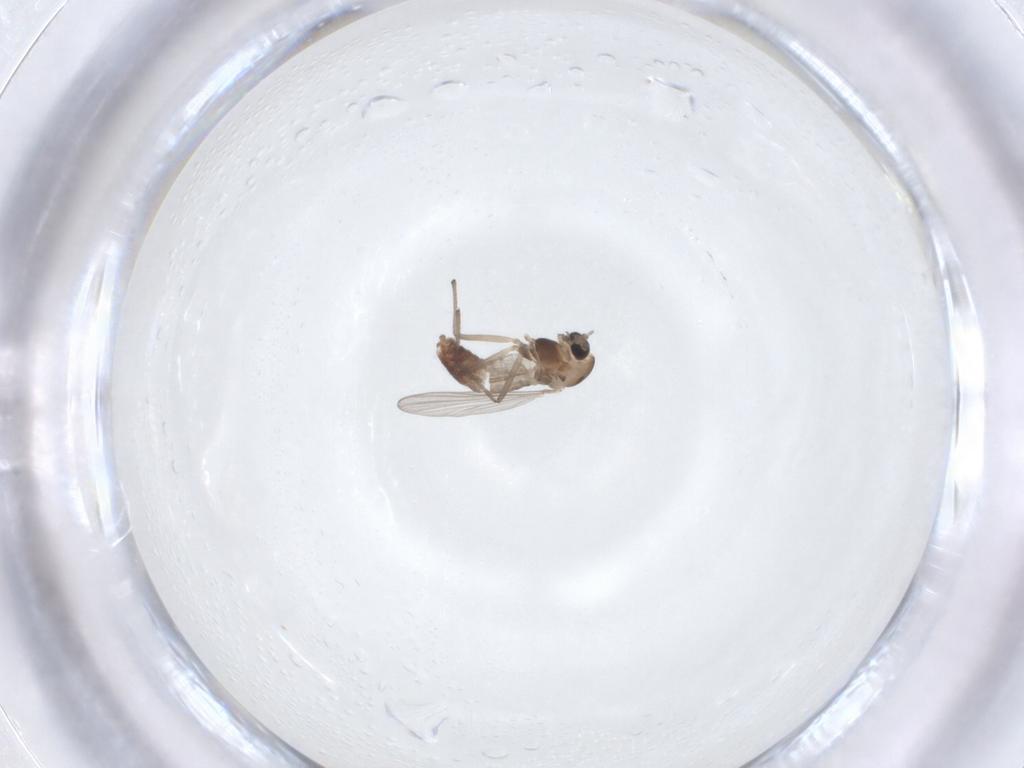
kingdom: Animalia
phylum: Arthropoda
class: Insecta
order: Diptera
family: Chironomidae
